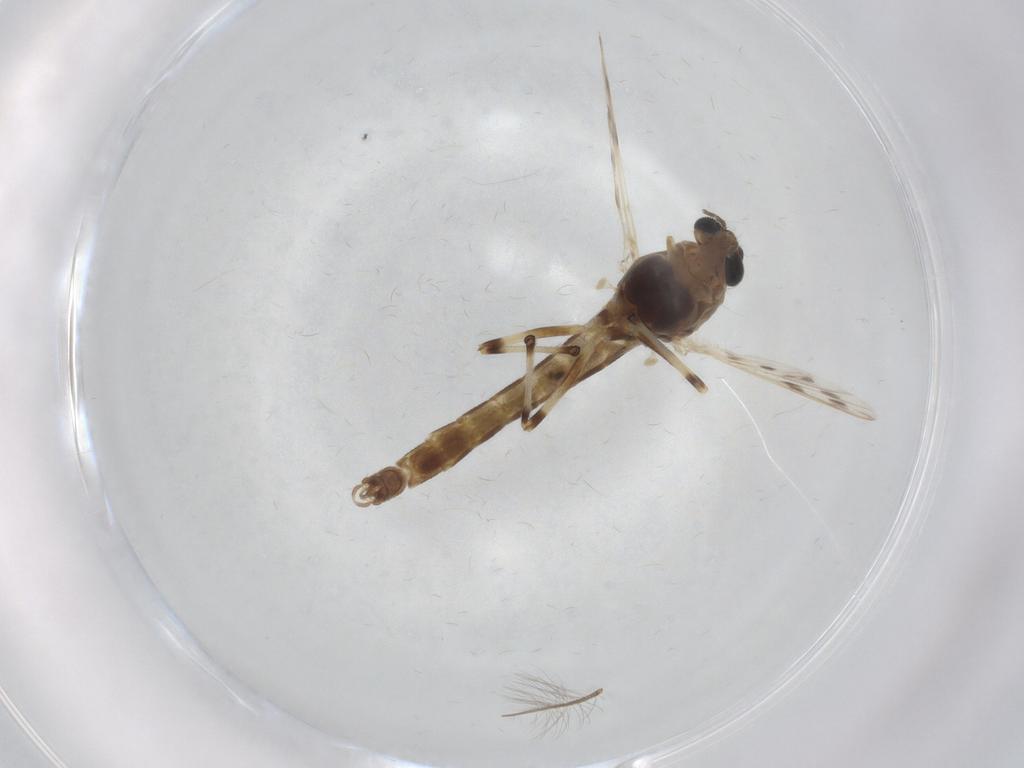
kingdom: Animalia
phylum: Arthropoda
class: Insecta
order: Diptera
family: Chironomidae
